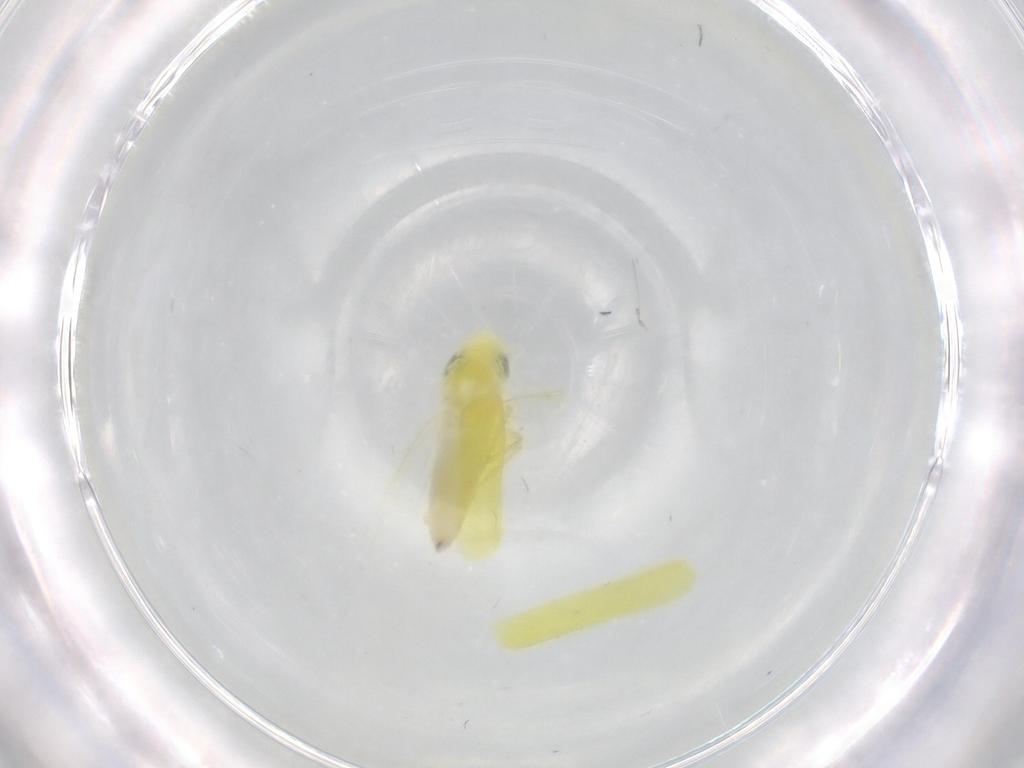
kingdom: Animalia
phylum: Arthropoda
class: Insecta
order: Hemiptera
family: Cicadellidae
